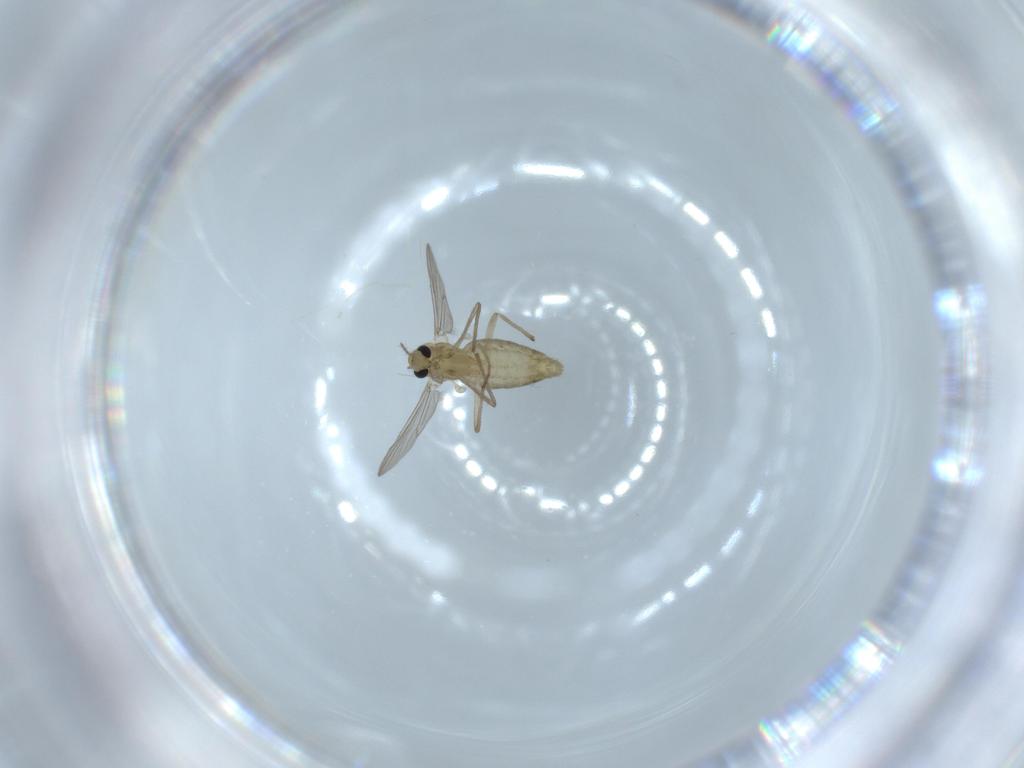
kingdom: Animalia
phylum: Arthropoda
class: Insecta
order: Diptera
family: Chironomidae
